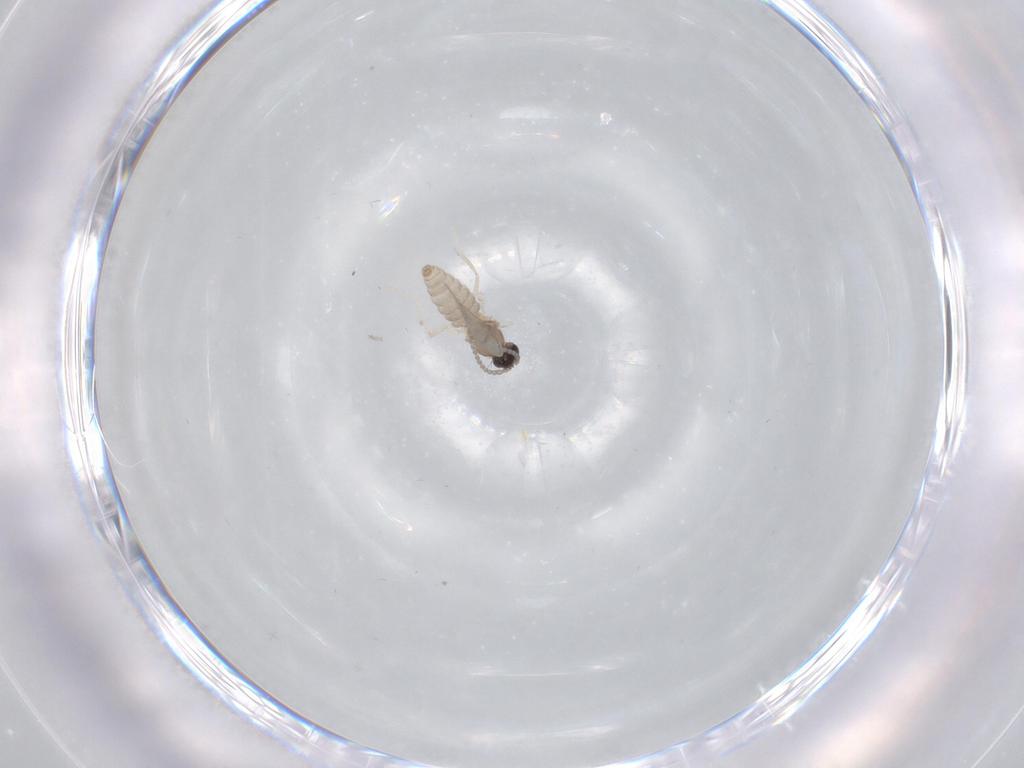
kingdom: Animalia
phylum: Arthropoda
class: Insecta
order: Diptera
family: Cecidomyiidae
